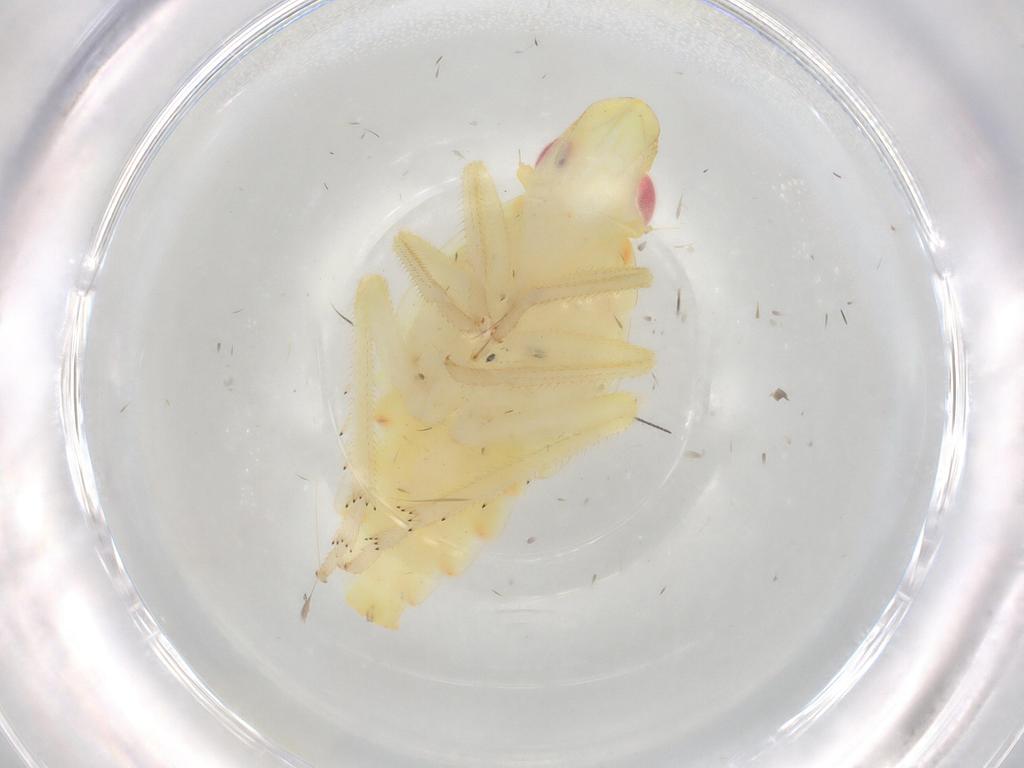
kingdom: Animalia
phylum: Arthropoda
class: Insecta
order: Hemiptera
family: Tropiduchidae
